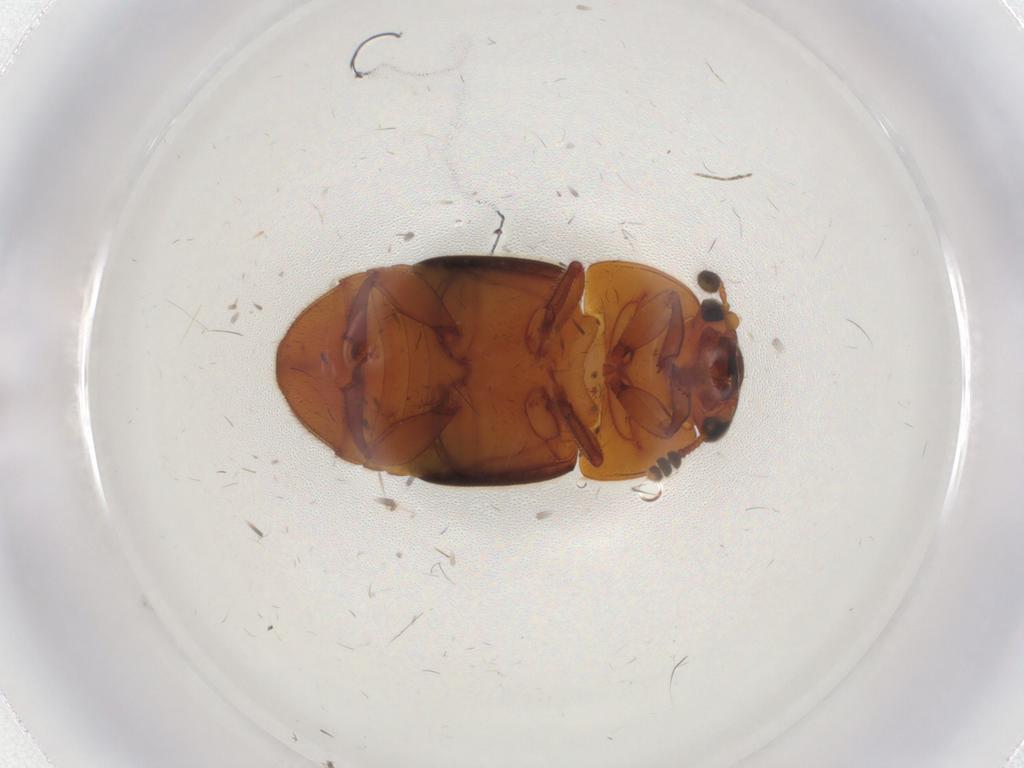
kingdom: Animalia
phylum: Arthropoda
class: Insecta
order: Coleoptera
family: Nitidulidae
